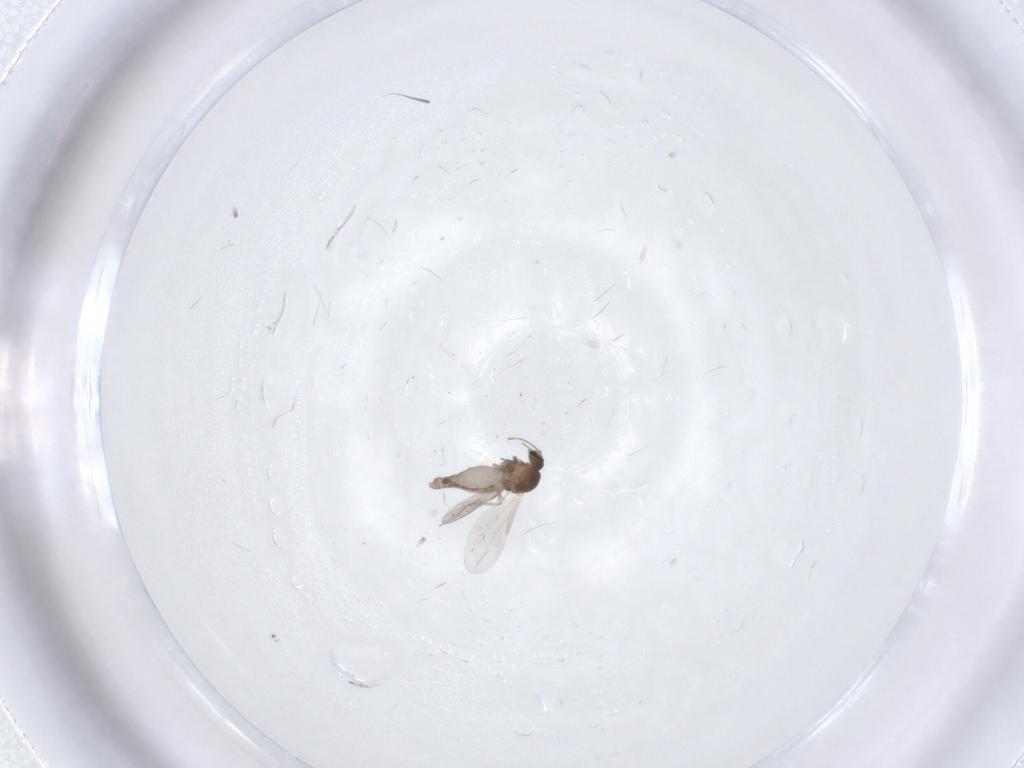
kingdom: Animalia
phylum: Arthropoda
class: Insecta
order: Diptera
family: Ceratopogonidae
